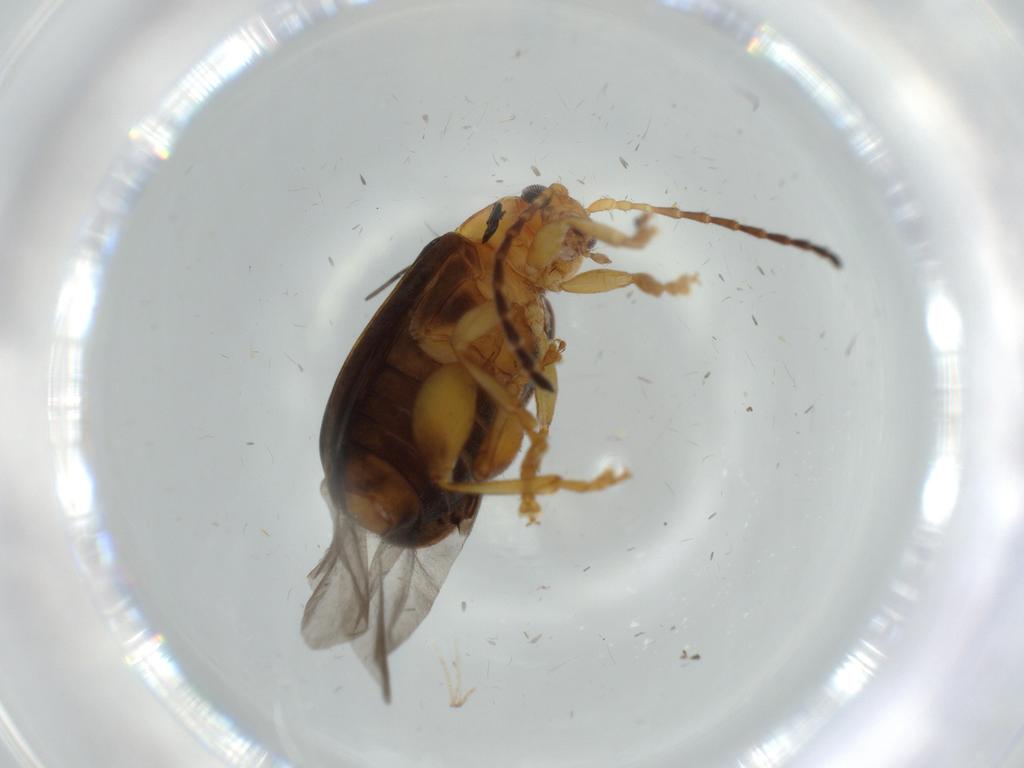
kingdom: Animalia
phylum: Arthropoda
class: Insecta
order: Coleoptera
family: Chrysomelidae
